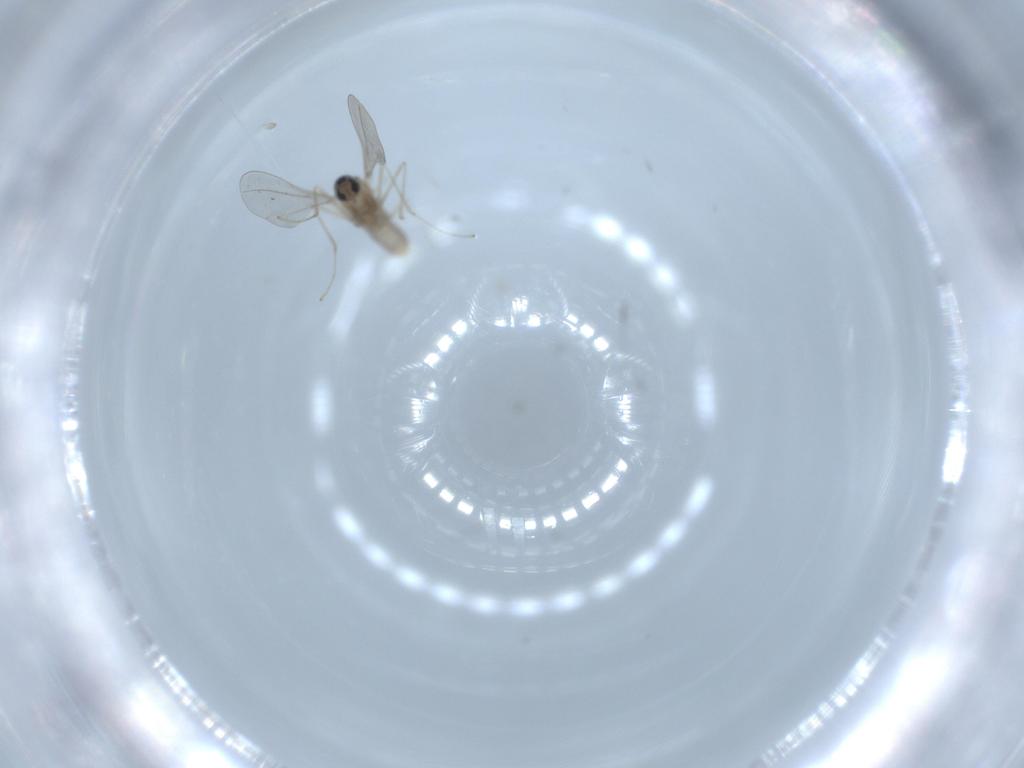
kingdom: Animalia
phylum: Arthropoda
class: Insecta
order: Diptera
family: Cecidomyiidae
